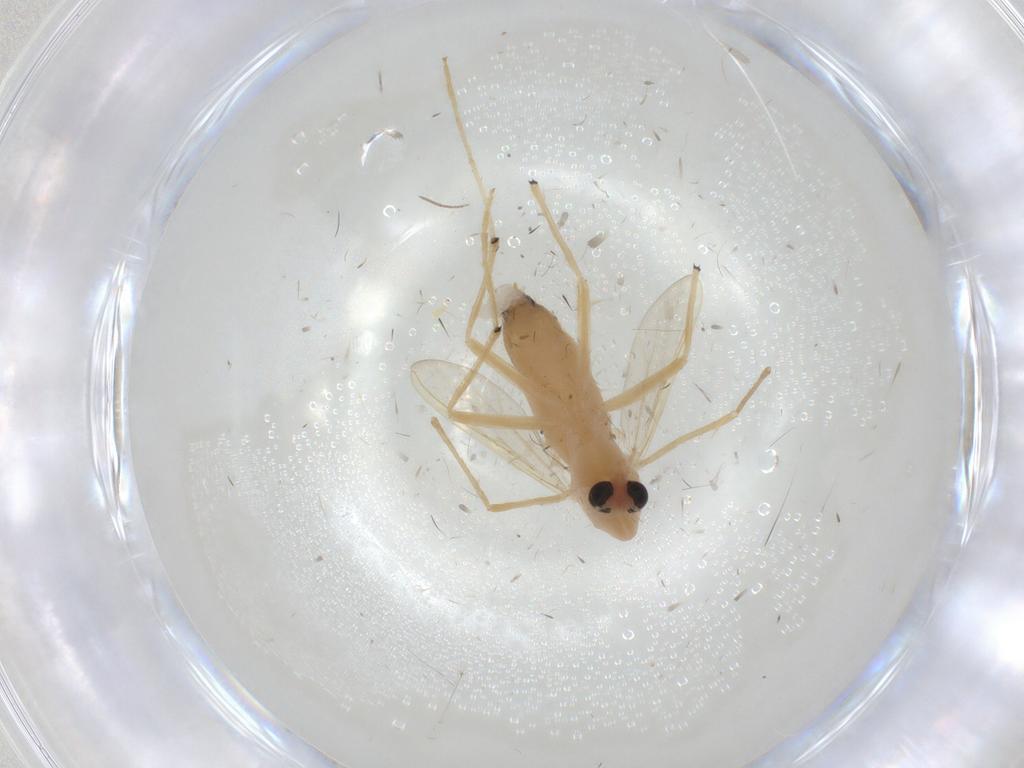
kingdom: Animalia
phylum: Arthropoda
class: Insecta
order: Diptera
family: Chironomidae
